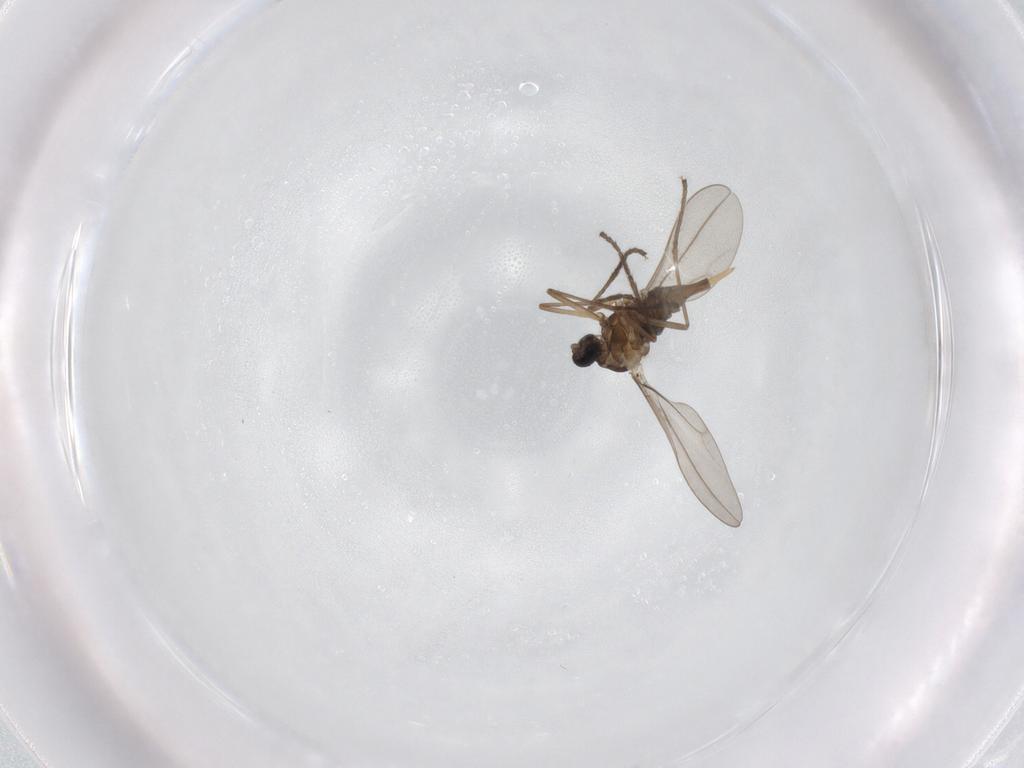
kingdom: Animalia
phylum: Arthropoda
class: Insecta
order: Diptera
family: Cecidomyiidae
